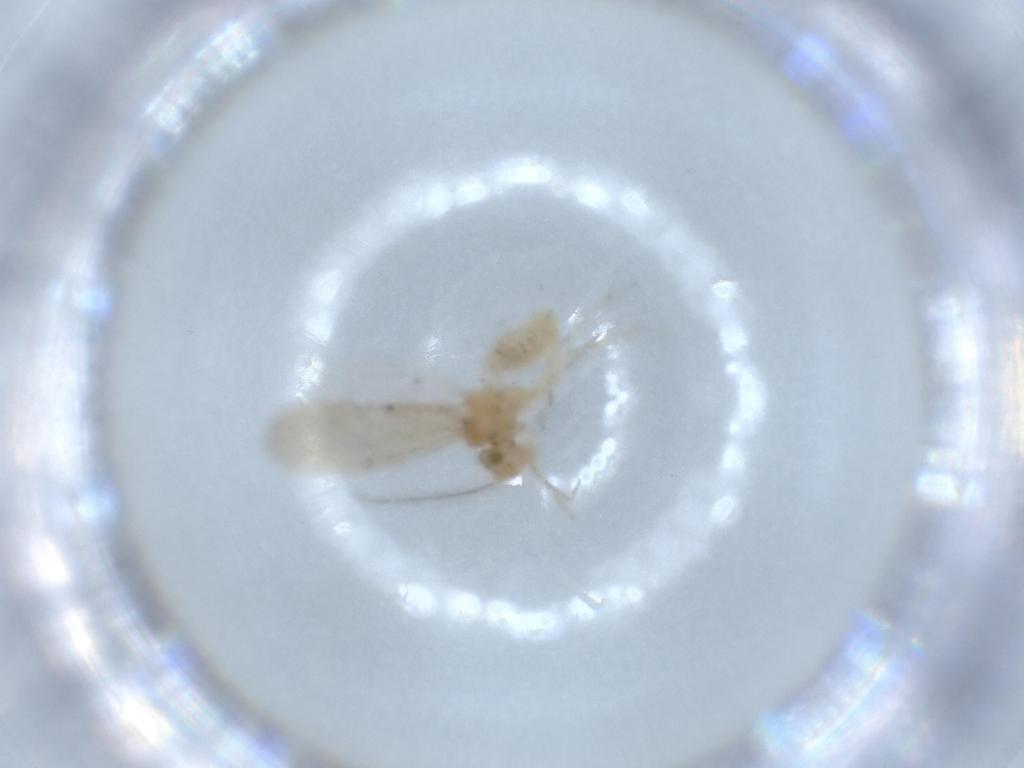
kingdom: Animalia
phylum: Arthropoda
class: Insecta
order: Psocodea
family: Lachesillidae
